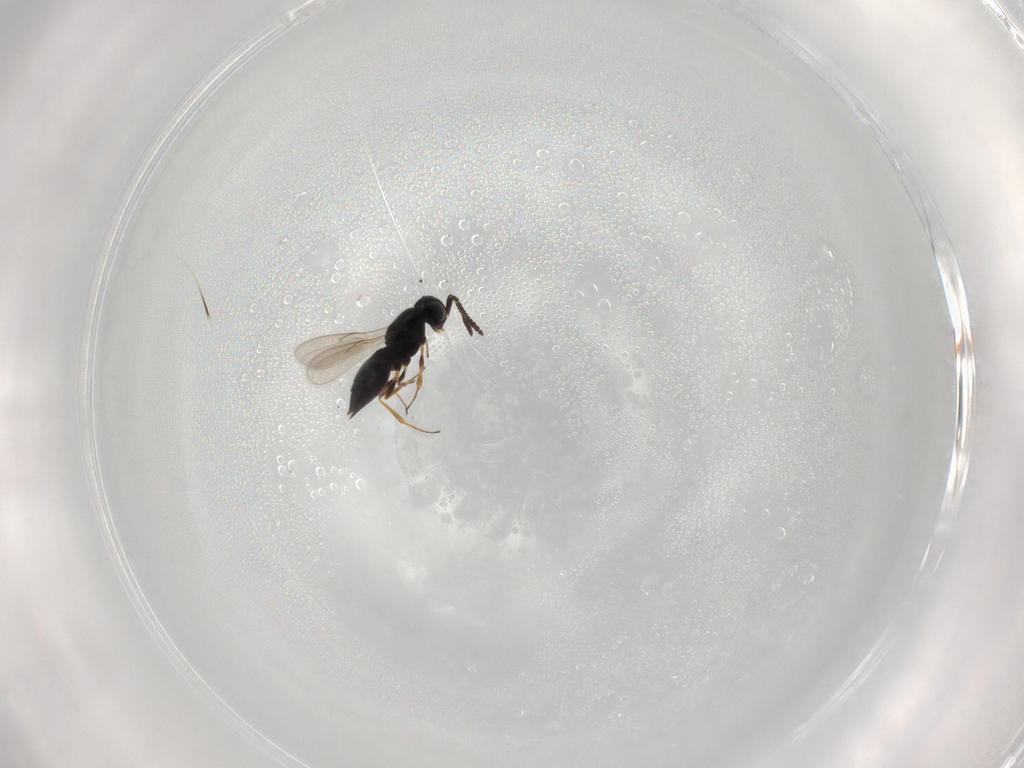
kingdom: Animalia
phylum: Arthropoda
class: Insecta
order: Hymenoptera
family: Scelionidae
